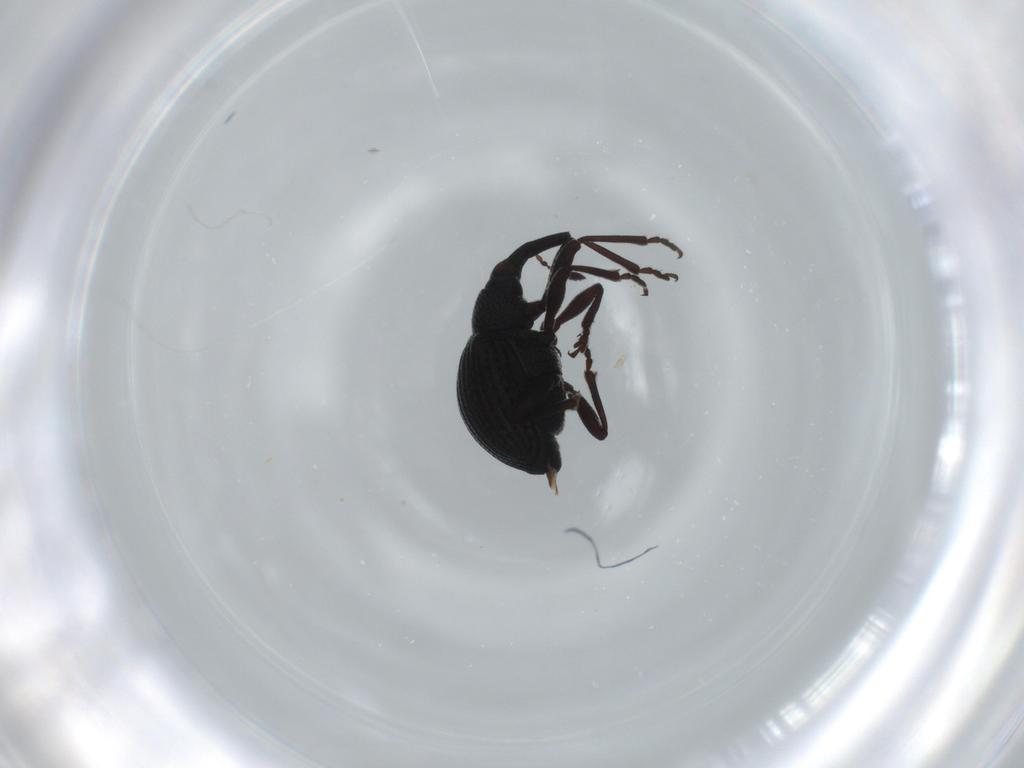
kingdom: Animalia
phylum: Arthropoda
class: Insecta
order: Coleoptera
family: Brentidae
